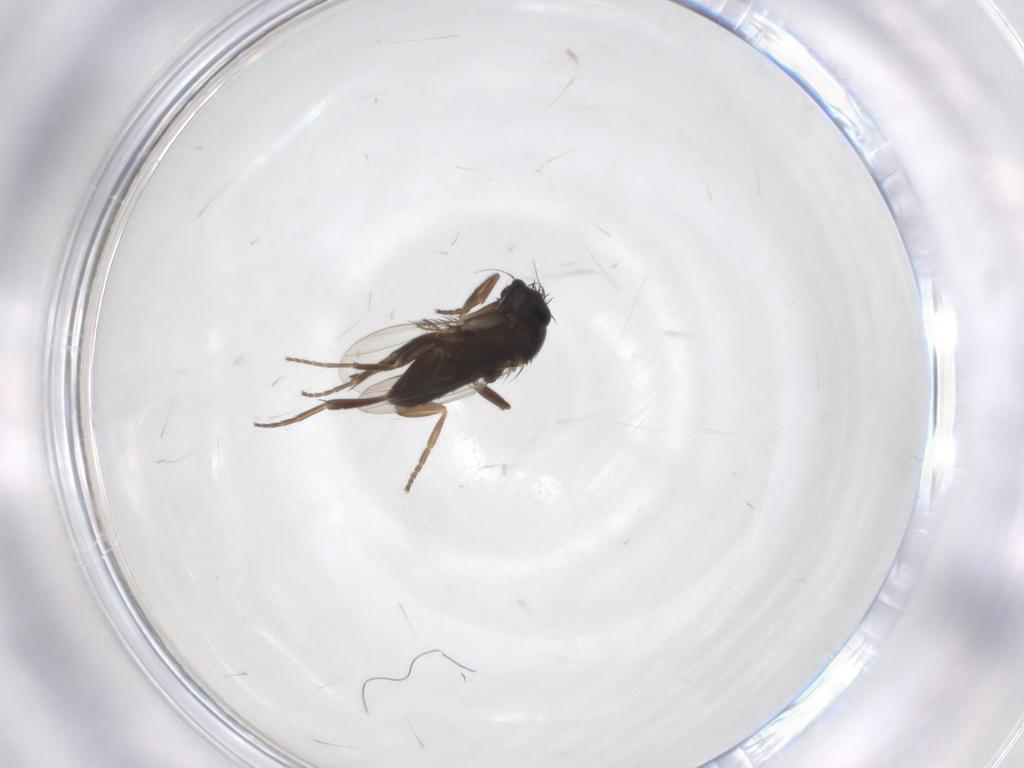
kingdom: Animalia
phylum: Arthropoda
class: Insecta
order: Diptera
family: Phoridae
